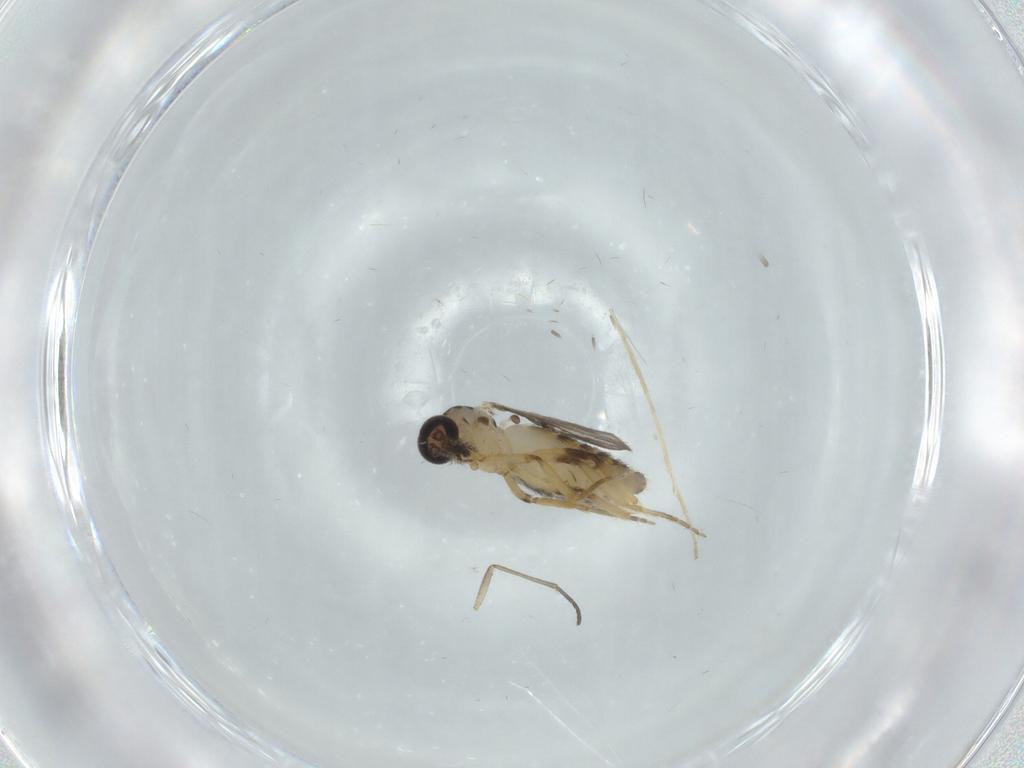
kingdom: Animalia
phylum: Arthropoda
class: Insecta
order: Diptera
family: Ceratopogonidae
